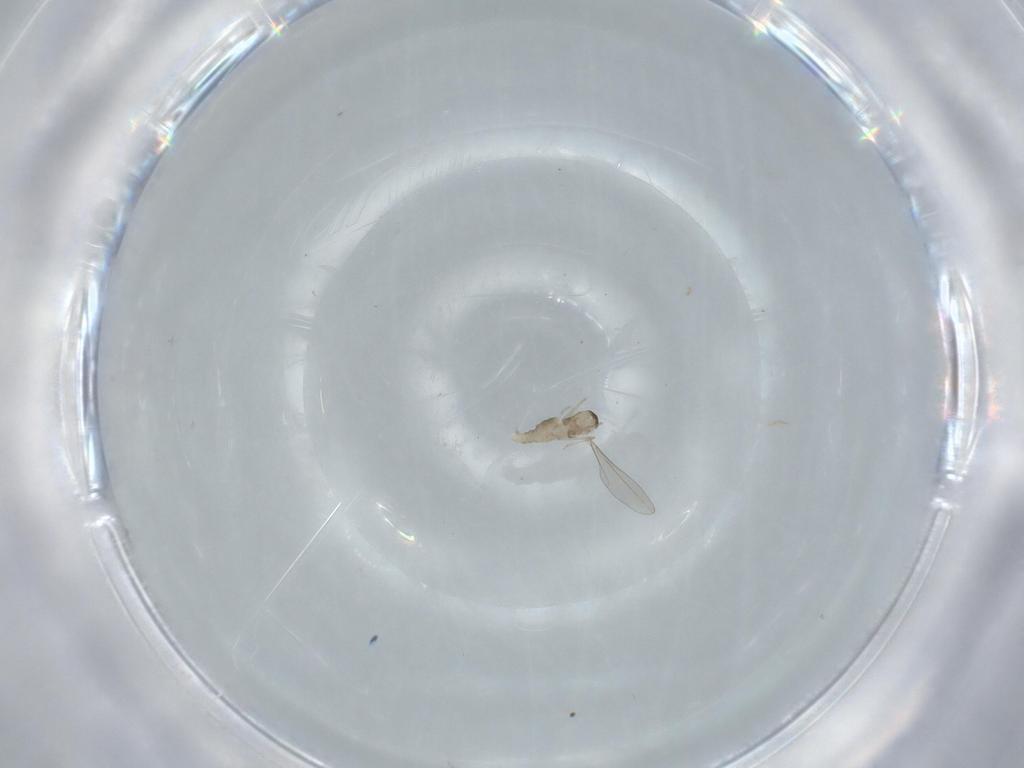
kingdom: Animalia
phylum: Arthropoda
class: Insecta
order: Diptera
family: Cecidomyiidae
